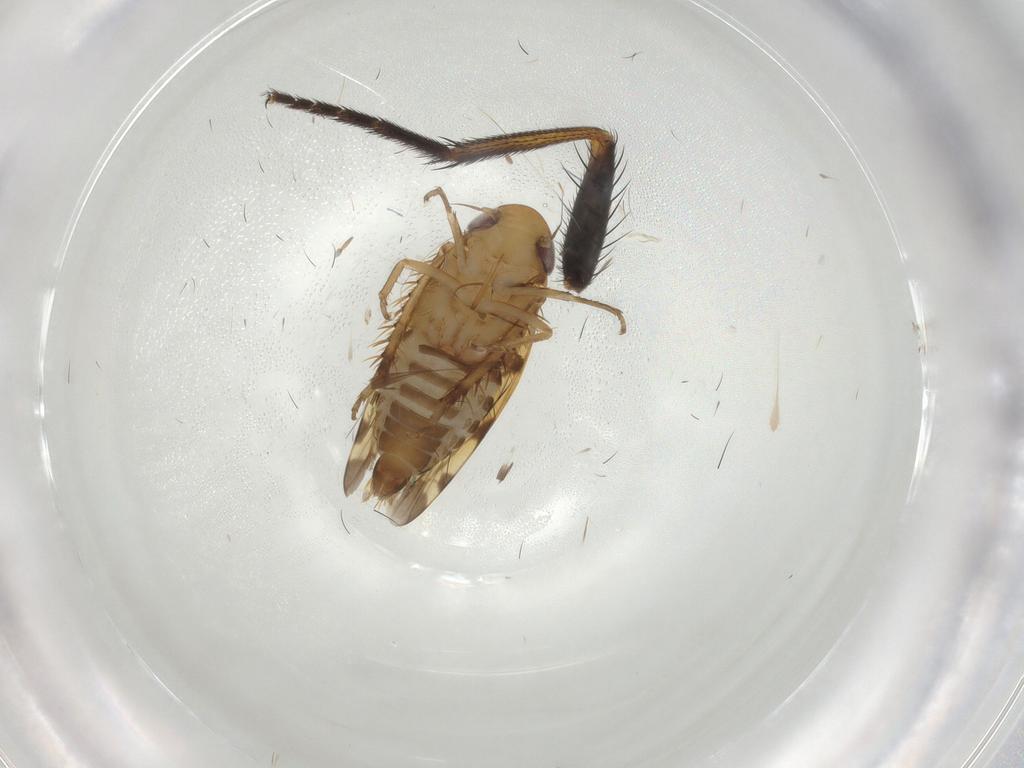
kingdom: Animalia
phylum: Arthropoda
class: Insecta
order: Hemiptera
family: Cicadellidae
